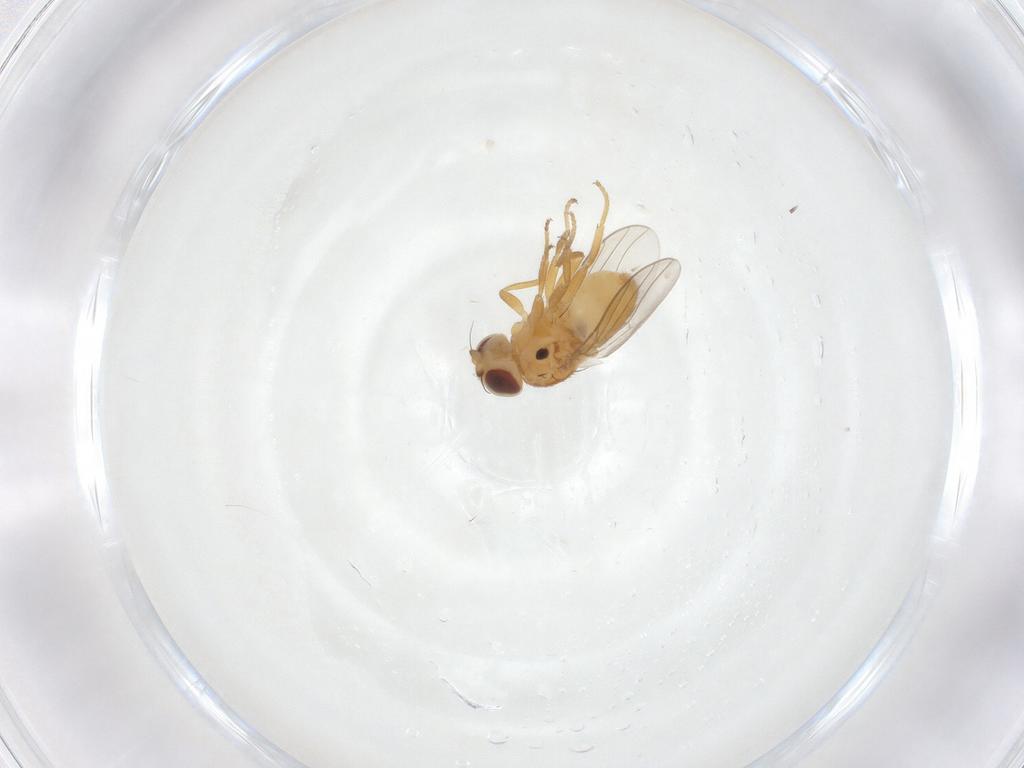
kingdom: Animalia
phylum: Arthropoda
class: Insecta
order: Diptera
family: Chloropidae
